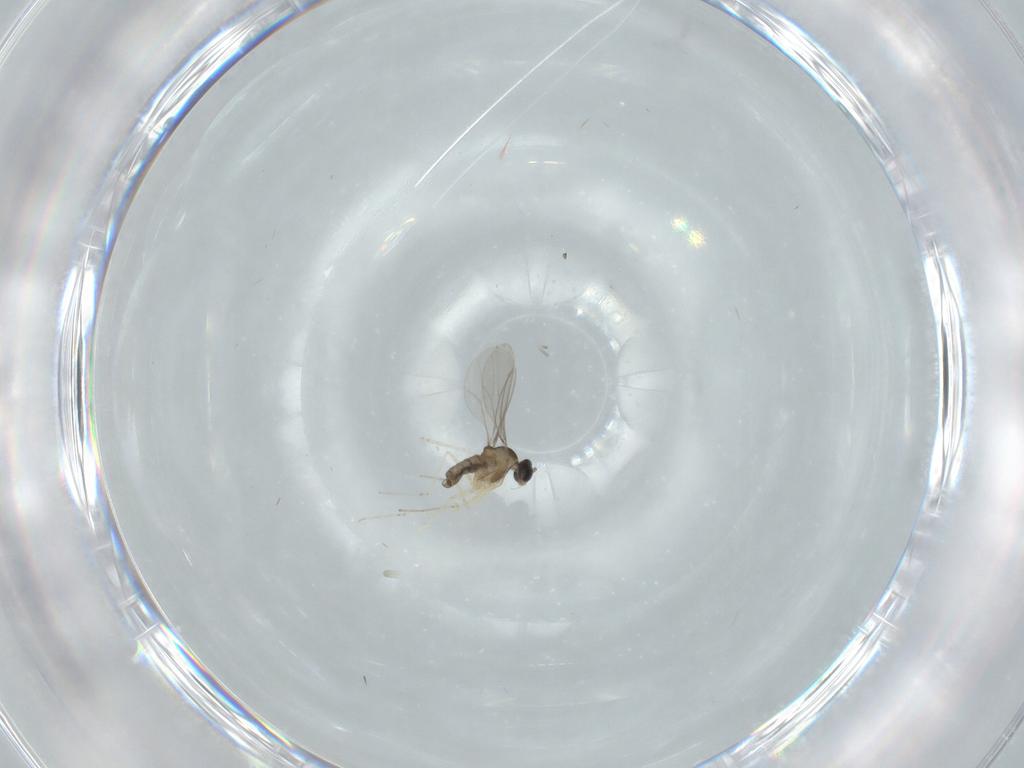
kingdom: Animalia
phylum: Arthropoda
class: Insecta
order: Diptera
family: Cecidomyiidae
